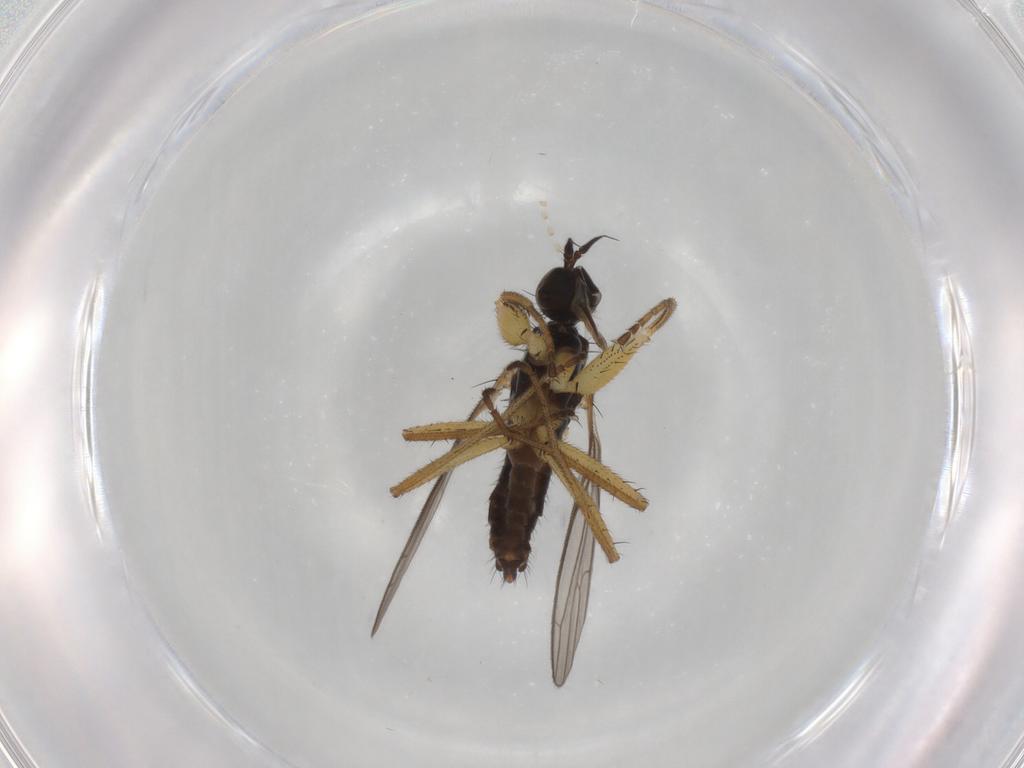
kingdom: Animalia
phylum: Arthropoda
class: Insecta
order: Diptera
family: Empididae
